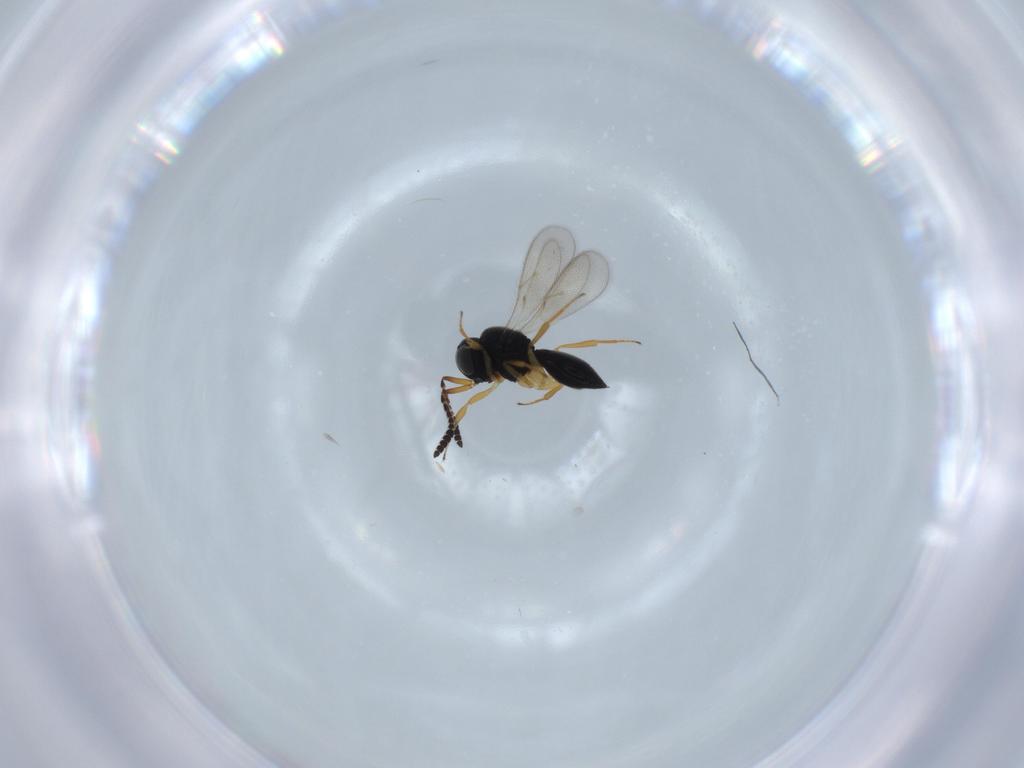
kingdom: Animalia
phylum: Arthropoda
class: Insecta
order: Hymenoptera
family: Scelionidae
